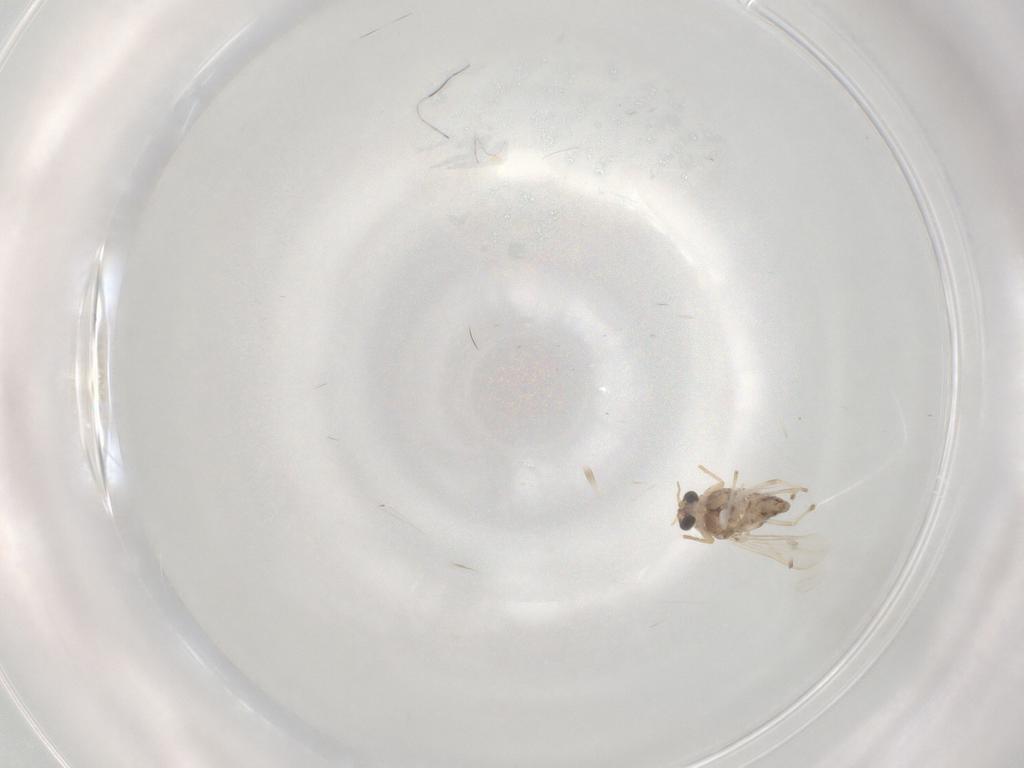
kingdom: Animalia
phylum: Arthropoda
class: Insecta
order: Diptera
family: Chironomidae
